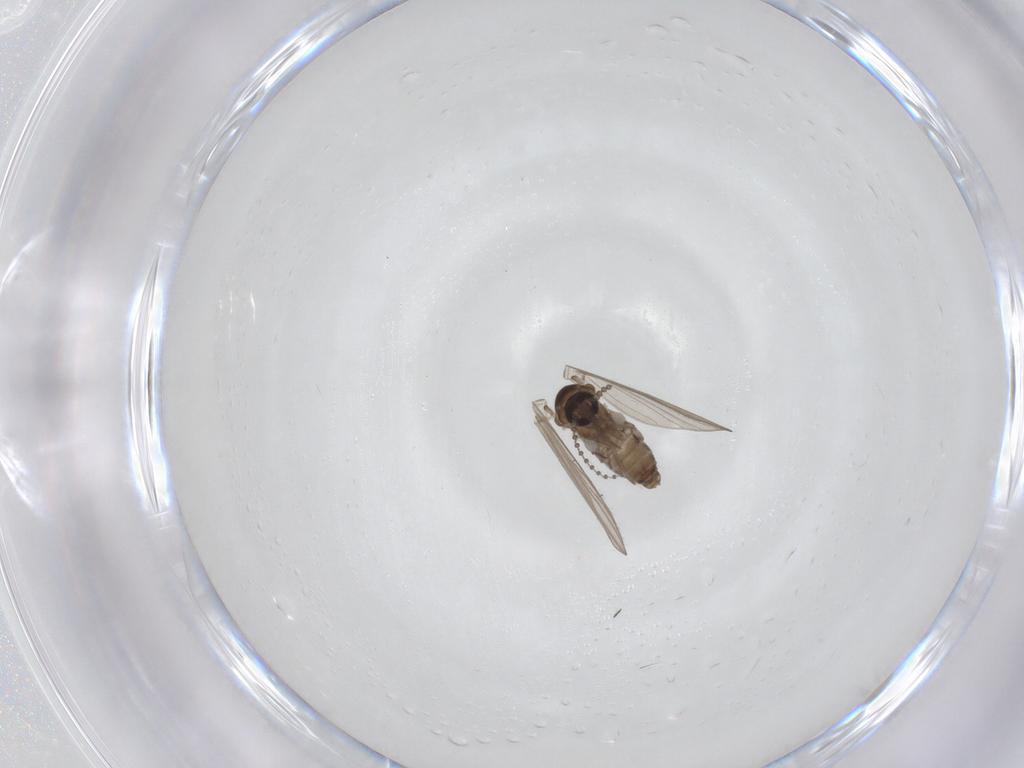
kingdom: Animalia
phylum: Arthropoda
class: Insecta
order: Diptera
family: Psychodidae
